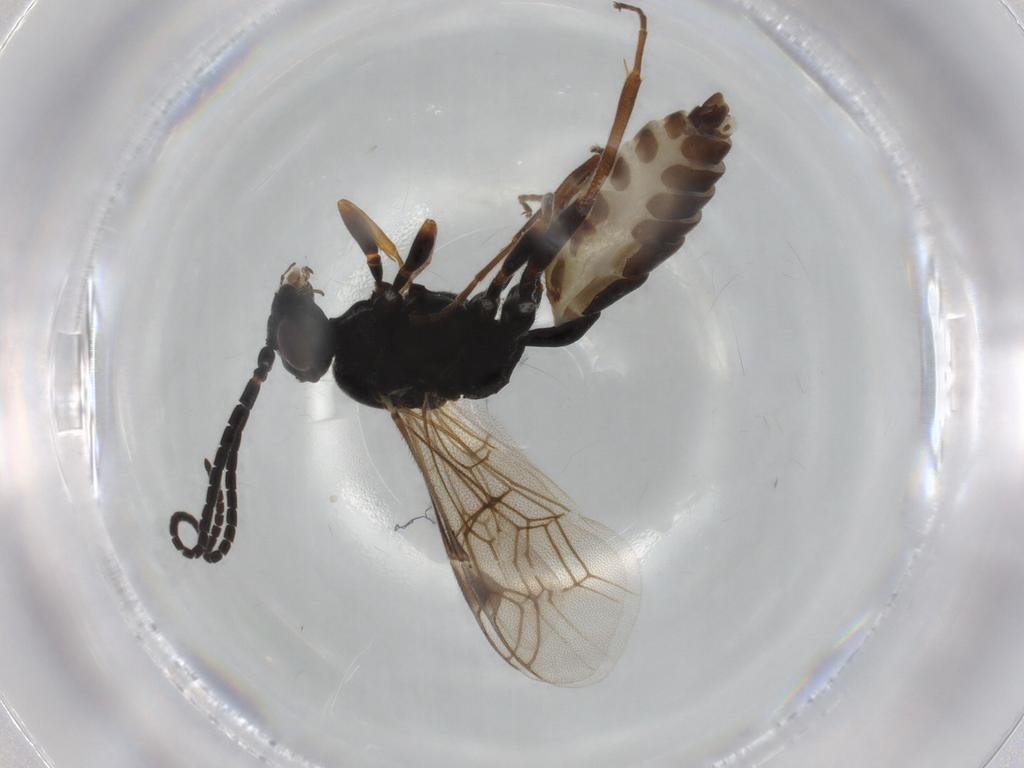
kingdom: Animalia
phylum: Arthropoda
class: Insecta
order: Hymenoptera
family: Ichneumonidae
